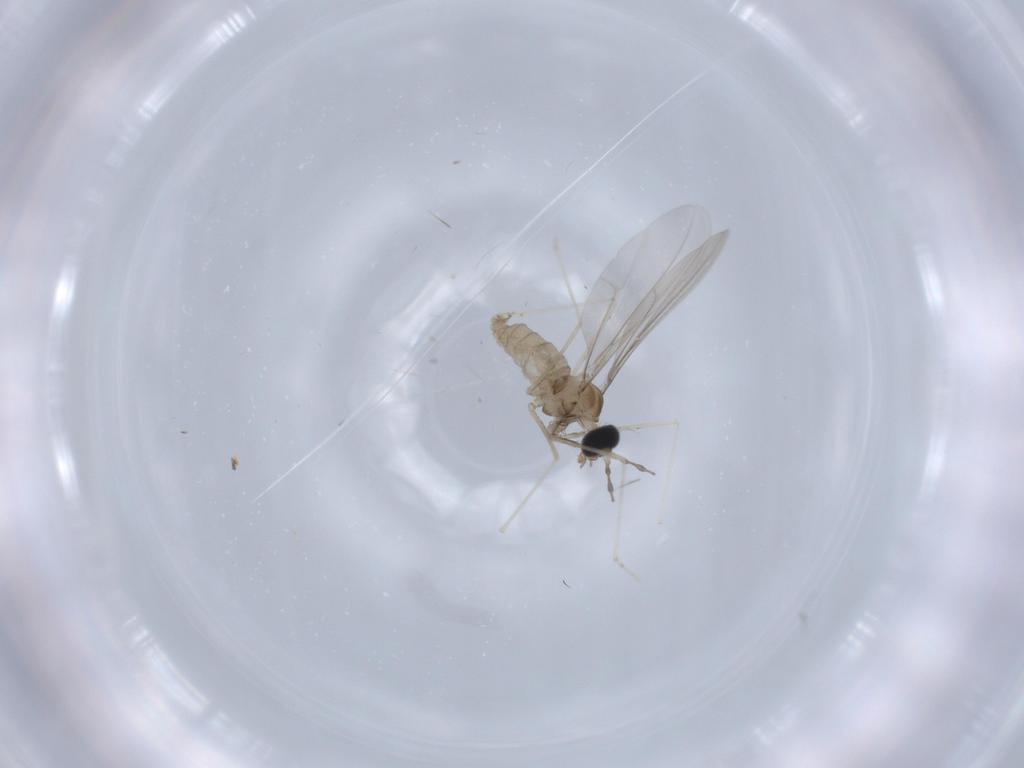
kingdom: Animalia
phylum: Arthropoda
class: Insecta
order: Diptera
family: Cecidomyiidae
